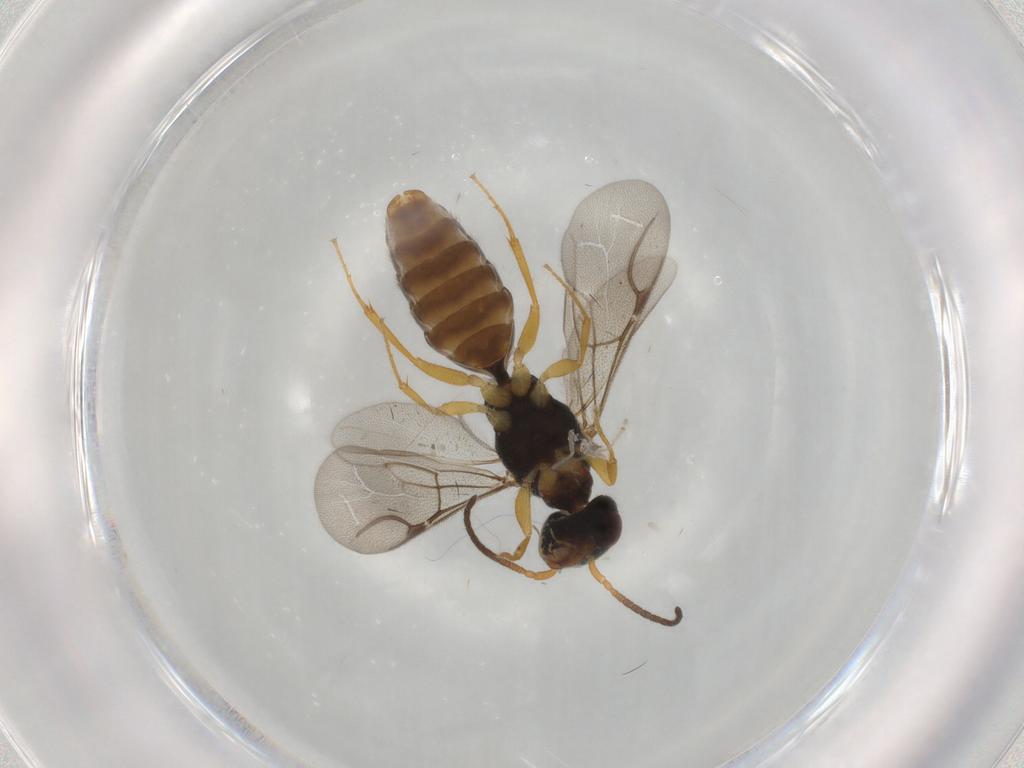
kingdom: Animalia
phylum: Arthropoda
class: Insecta
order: Hymenoptera
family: Bethylidae
